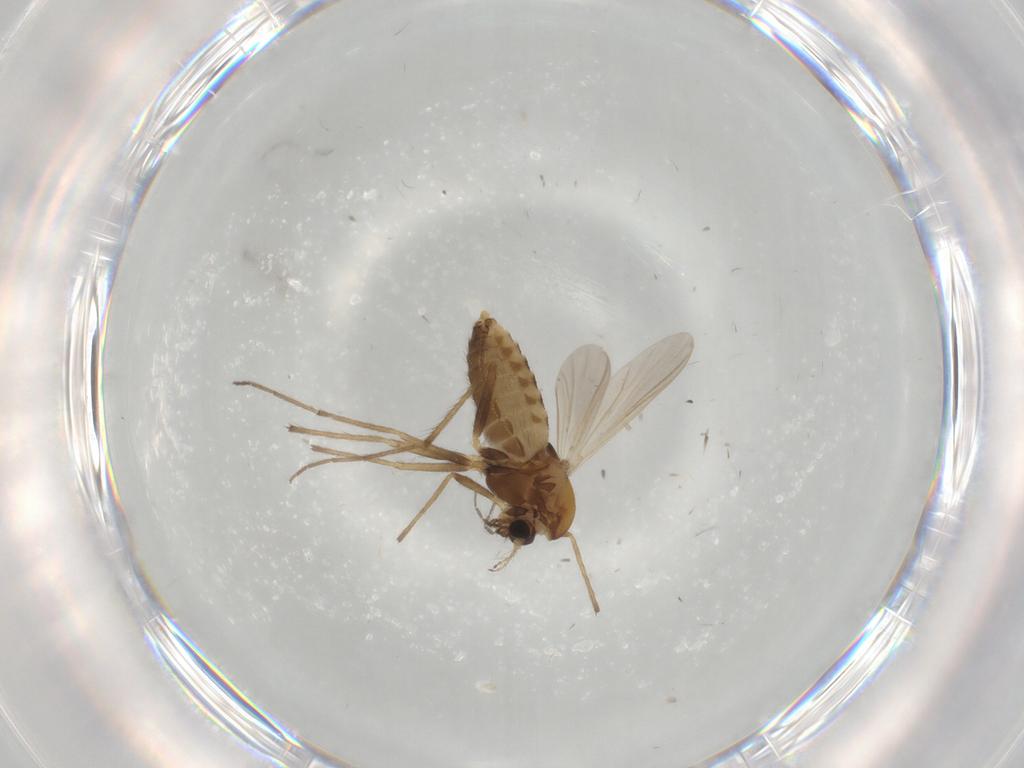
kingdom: Animalia
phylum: Arthropoda
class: Insecta
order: Diptera
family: Chironomidae
